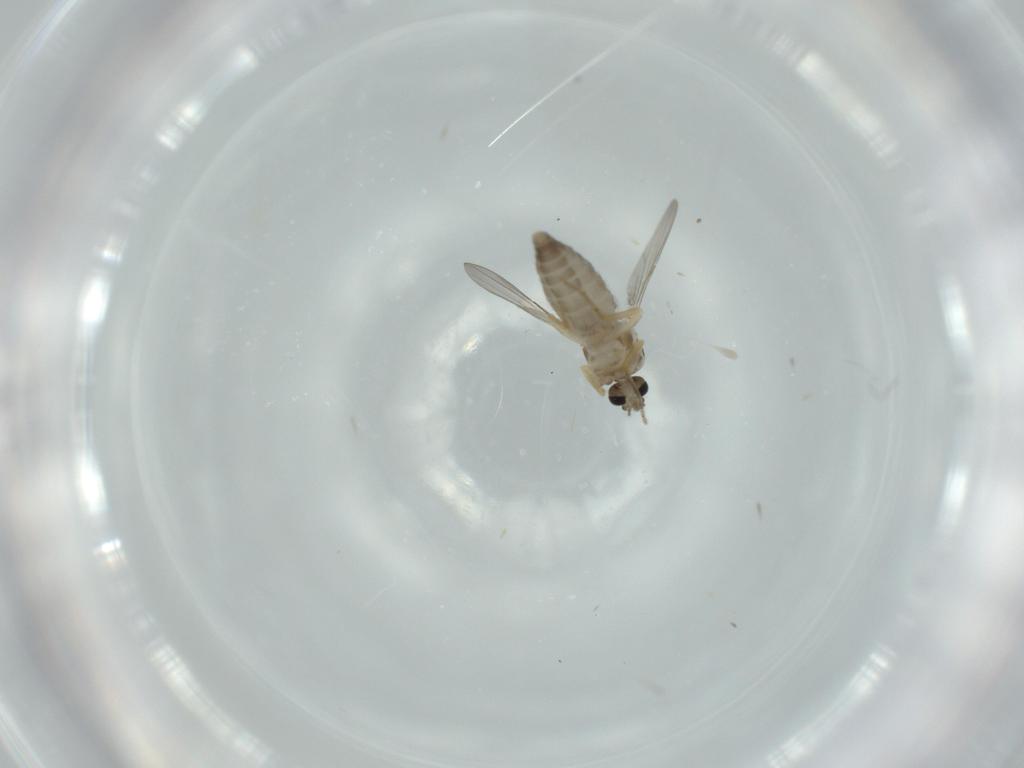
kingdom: Animalia
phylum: Arthropoda
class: Insecta
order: Diptera
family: Ceratopogonidae
